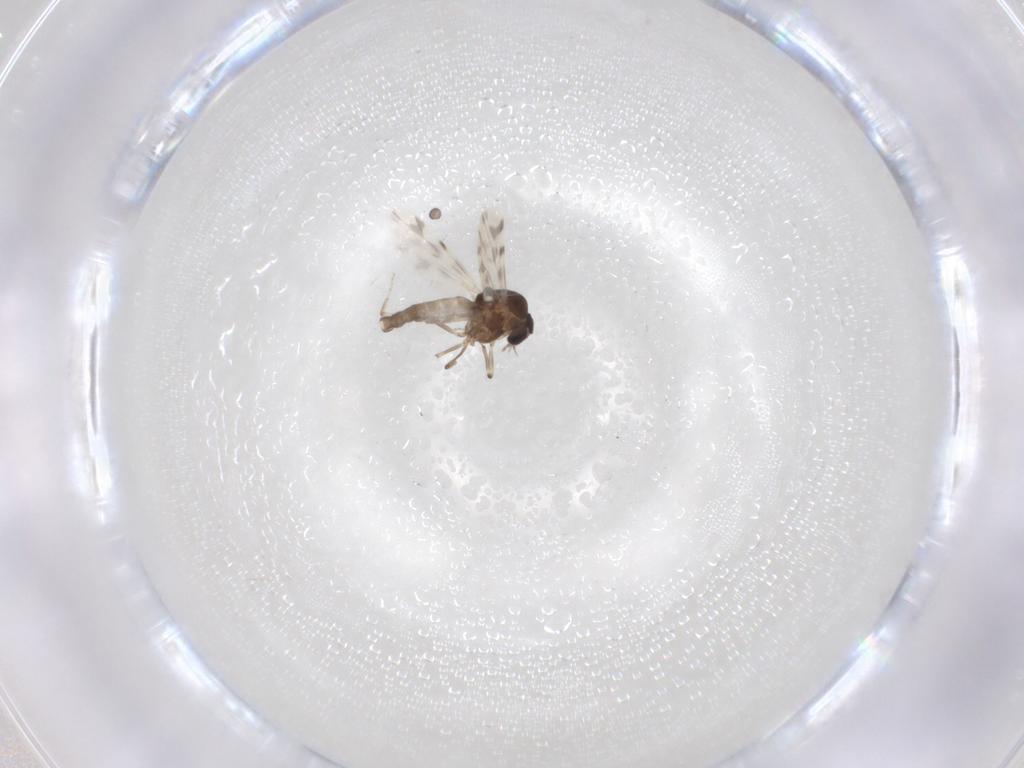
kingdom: Animalia
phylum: Arthropoda
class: Insecta
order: Diptera
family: Ceratopogonidae
